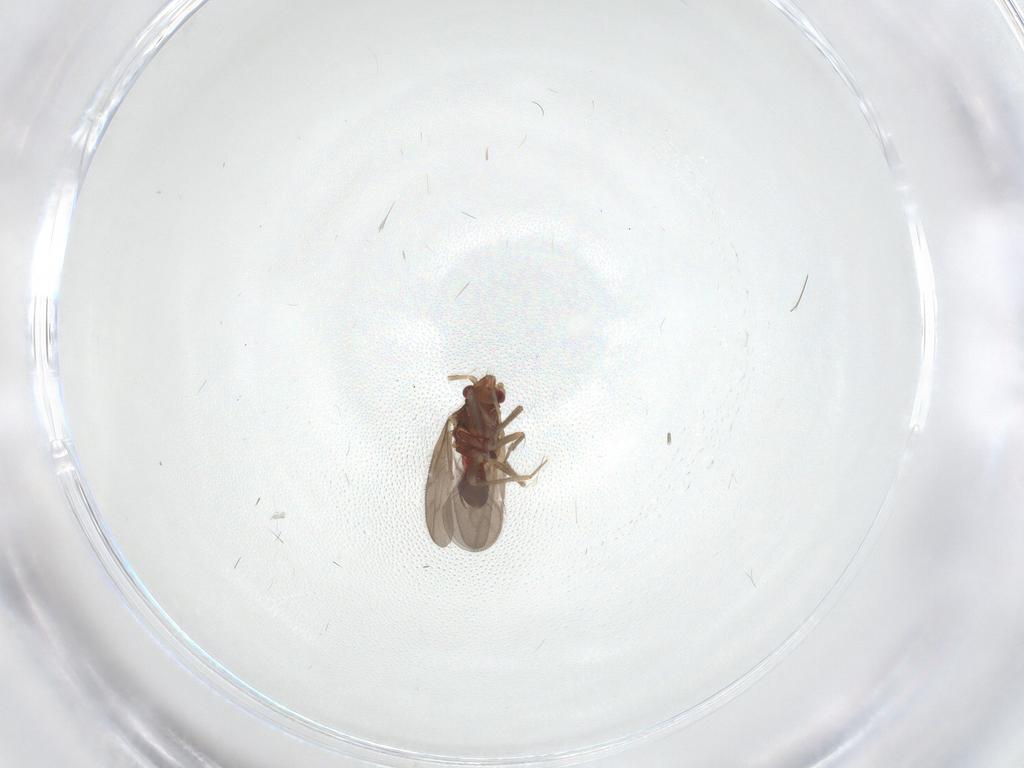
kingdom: Animalia
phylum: Arthropoda
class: Insecta
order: Hemiptera
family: Ceratocombidae
